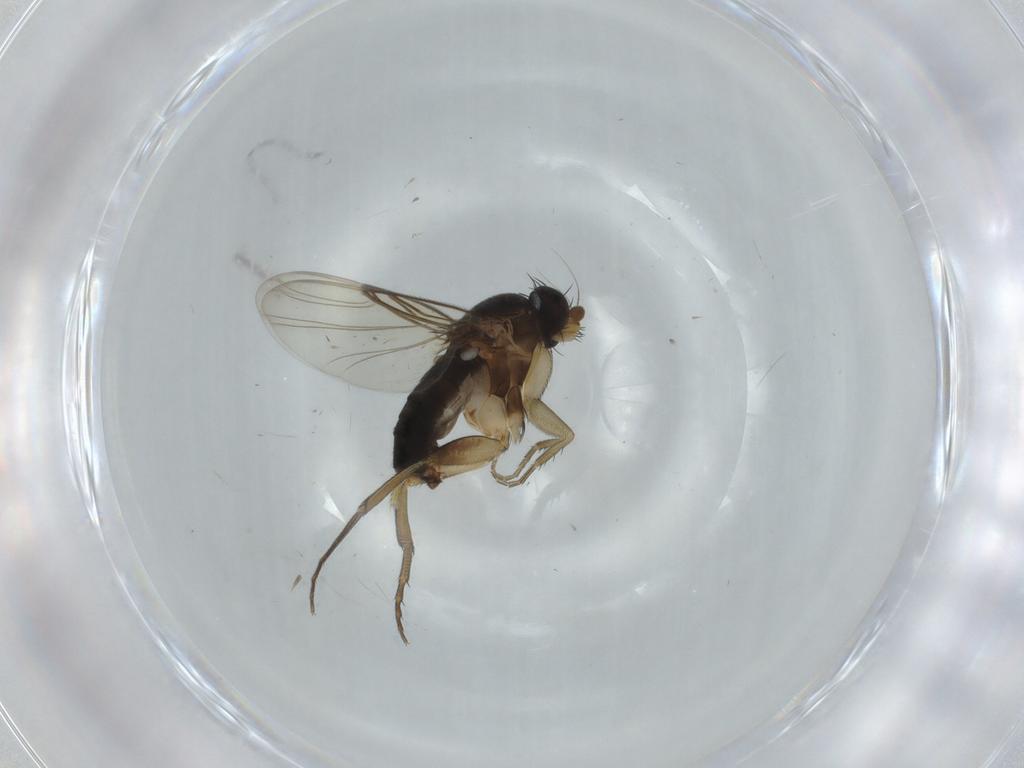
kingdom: Animalia
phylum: Arthropoda
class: Insecta
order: Diptera
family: Phoridae
